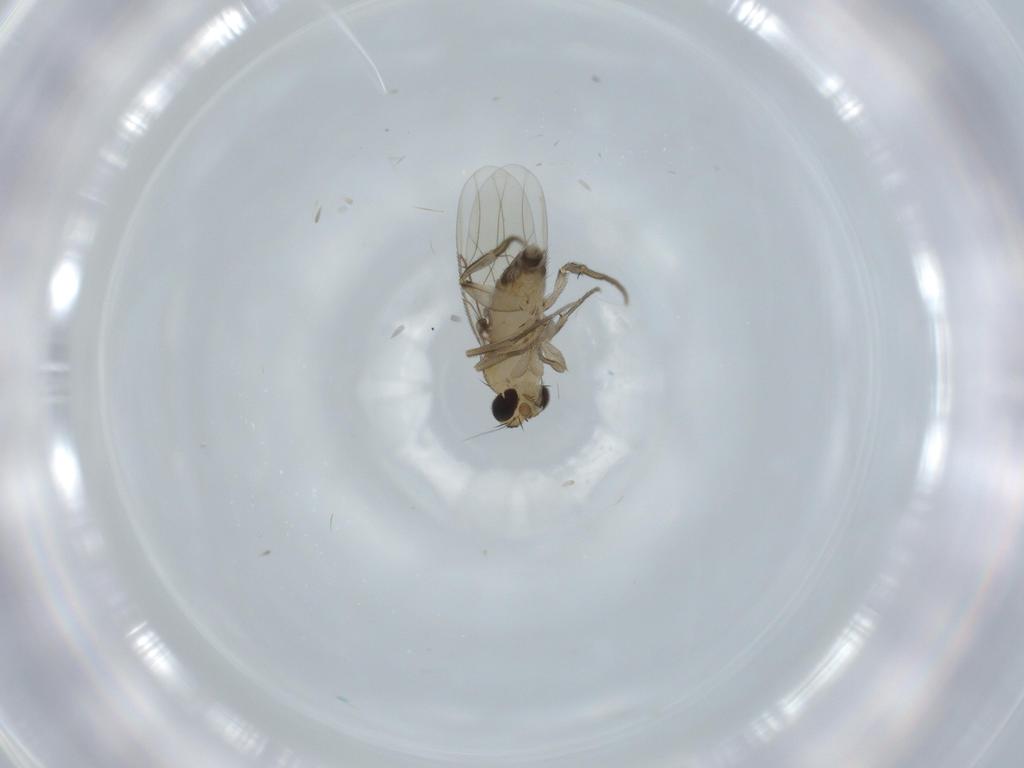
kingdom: Animalia
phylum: Arthropoda
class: Insecta
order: Diptera
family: Phoridae
